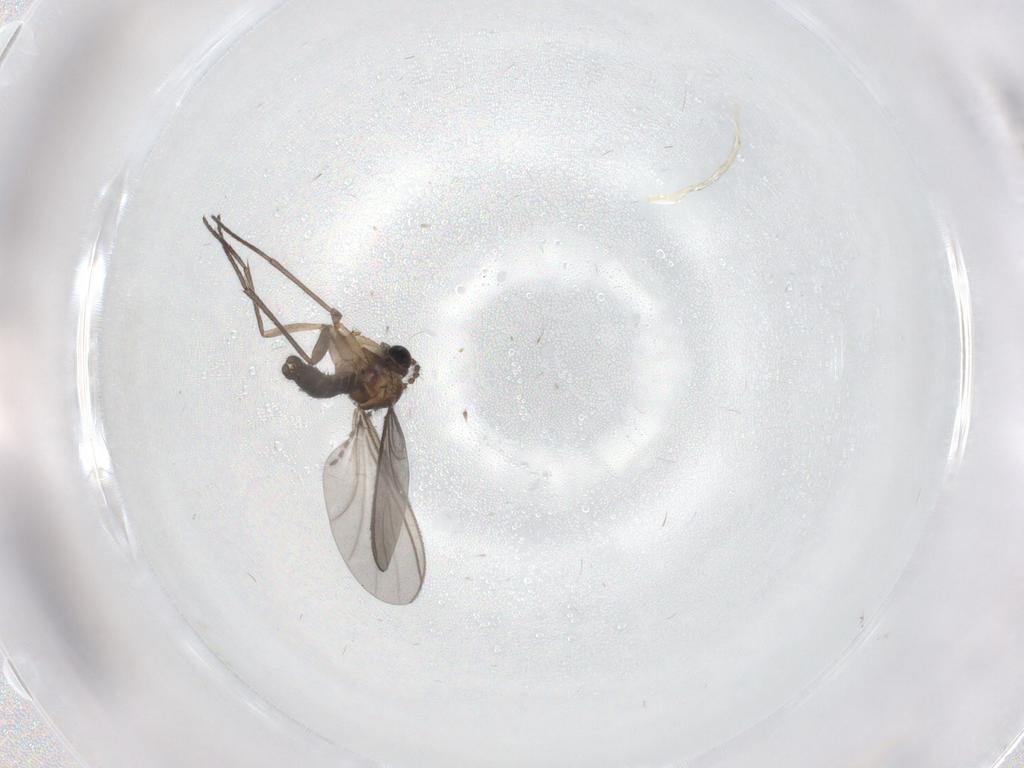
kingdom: Animalia
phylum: Arthropoda
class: Insecta
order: Diptera
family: Sciaridae
